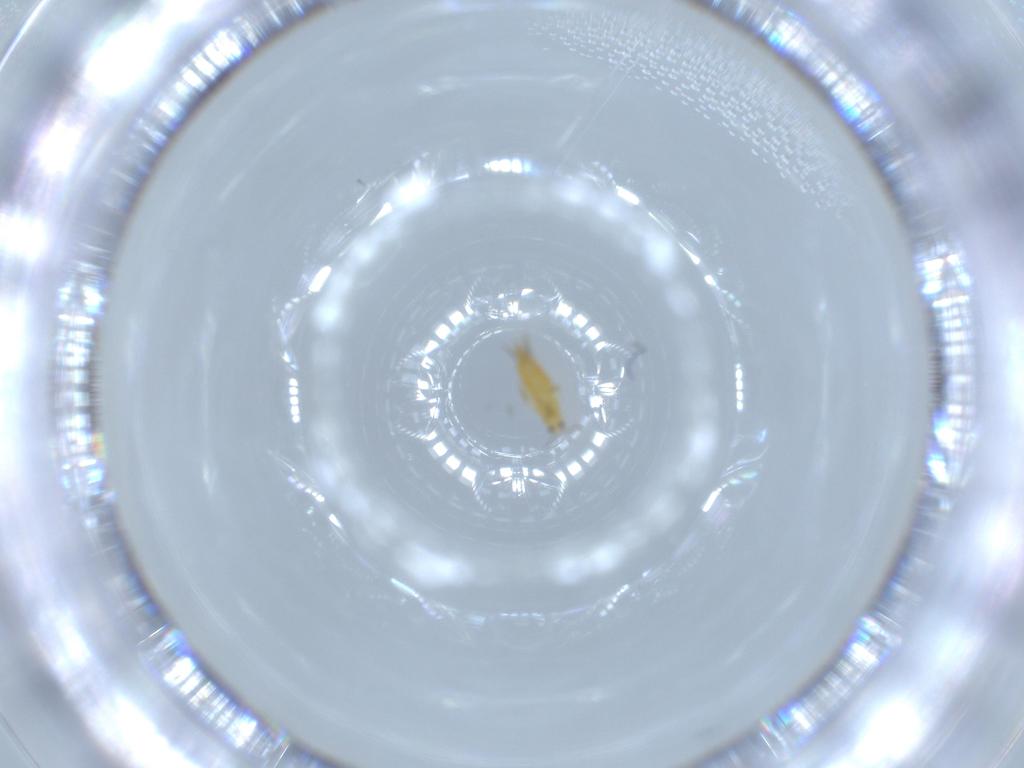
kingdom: Animalia
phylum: Arthropoda
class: Insecta
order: Thysanoptera
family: Thripidae
